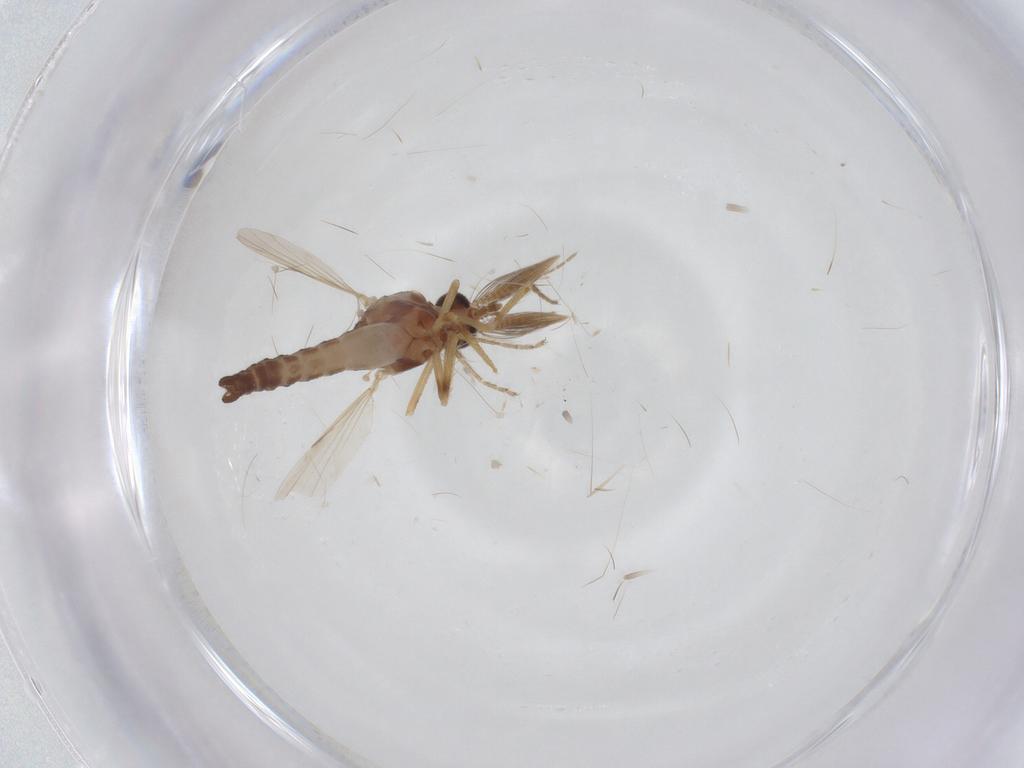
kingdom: Animalia
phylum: Arthropoda
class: Insecta
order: Diptera
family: Ceratopogonidae
